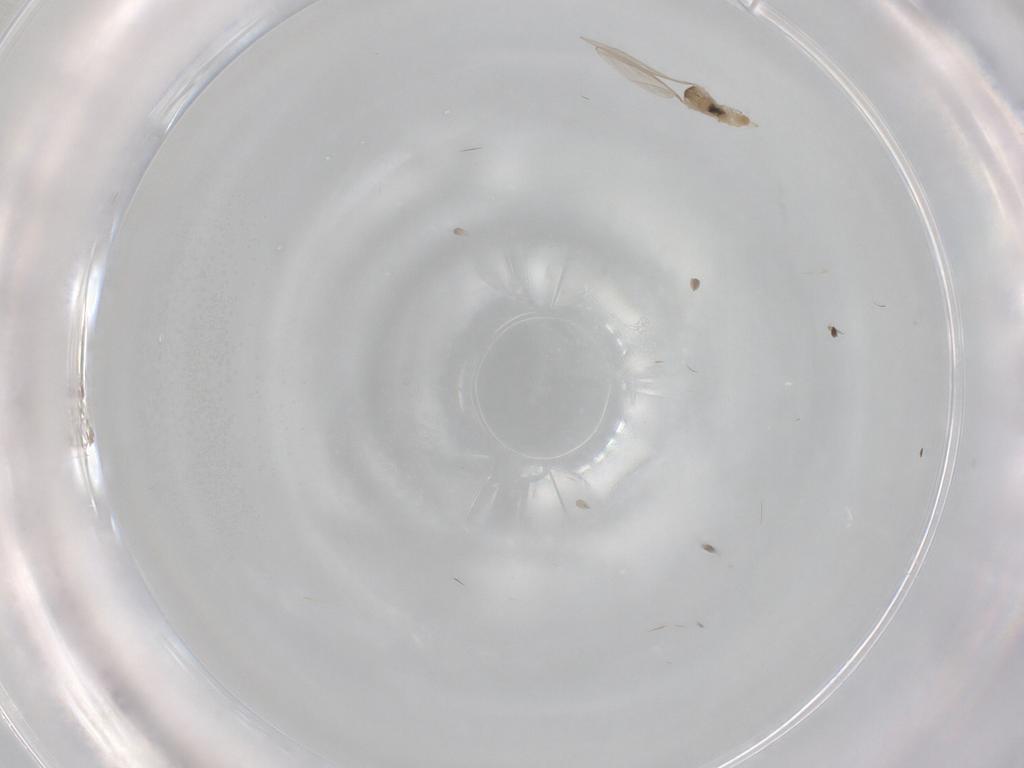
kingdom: Animalia
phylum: Arthropoda
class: Insecta
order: Diptera
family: Cecidomyiidae
